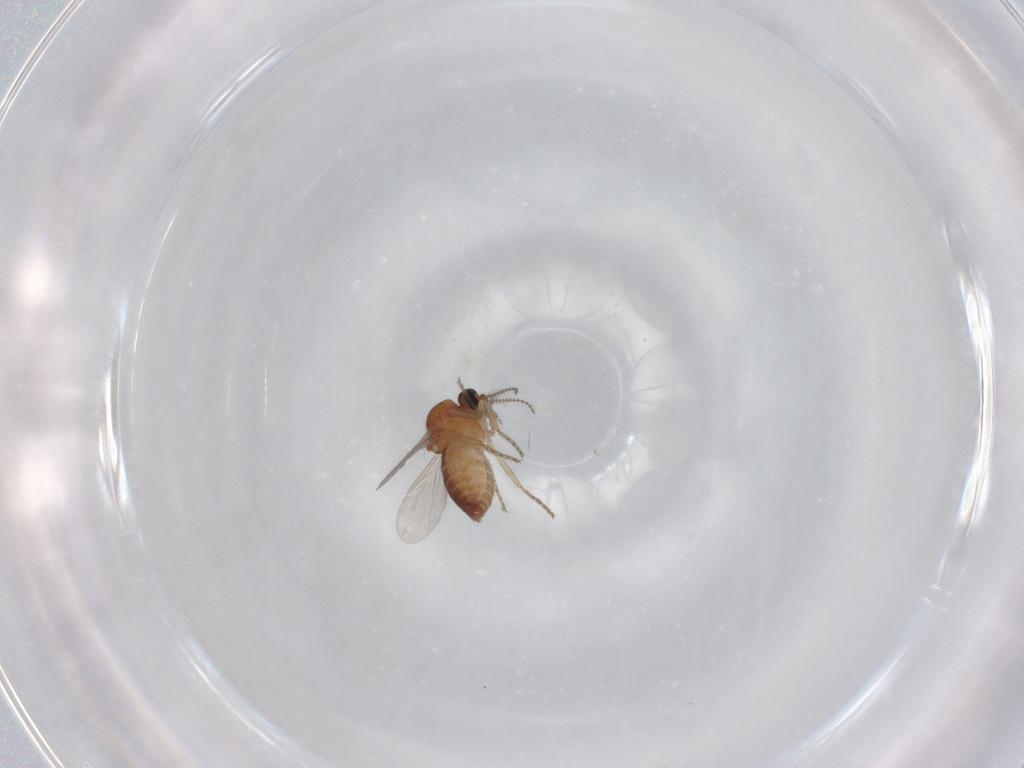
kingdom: Animalia
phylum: Arthropoda
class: Insecta
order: Diptera
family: Ceratopogonidae
